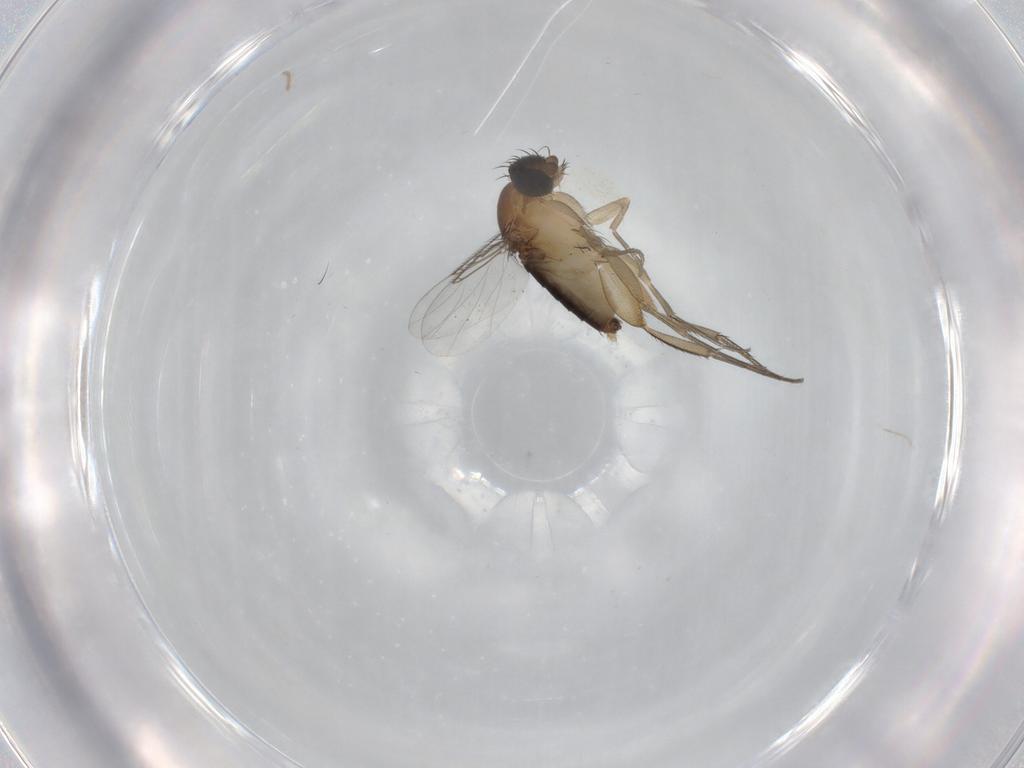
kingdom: Animalia
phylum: Arthropoda
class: Insecta
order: Diptera
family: Phoridae
